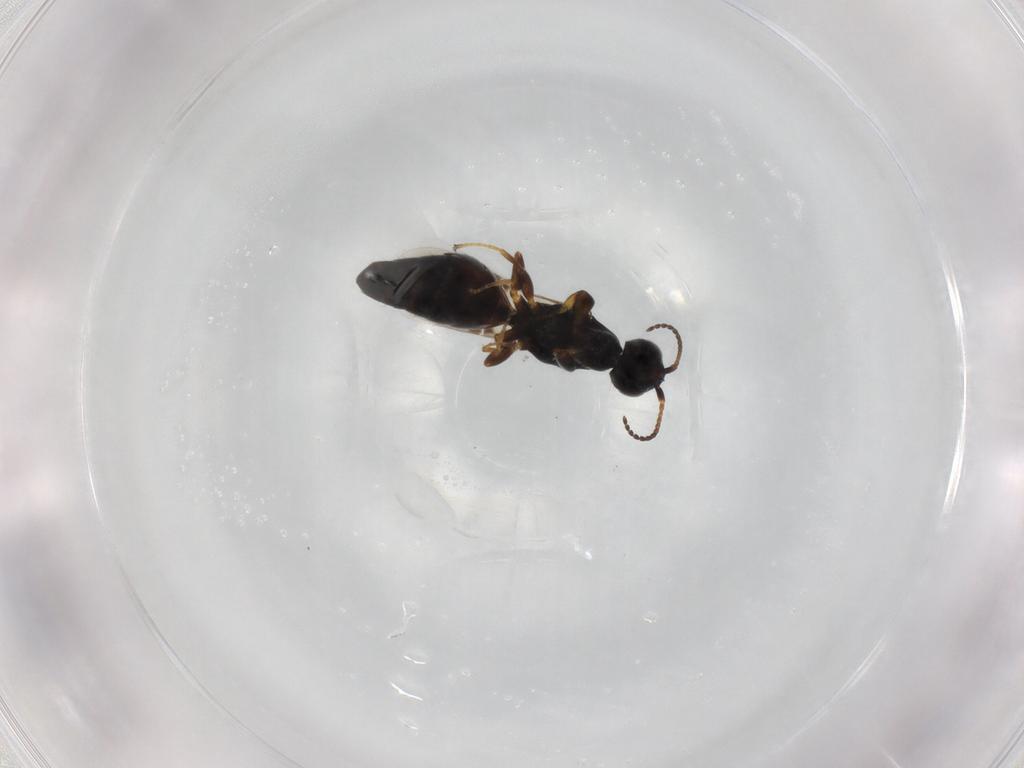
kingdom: Animalia
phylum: Arthropoda
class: Insecta
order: Hymenoptera
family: Bethylidae
